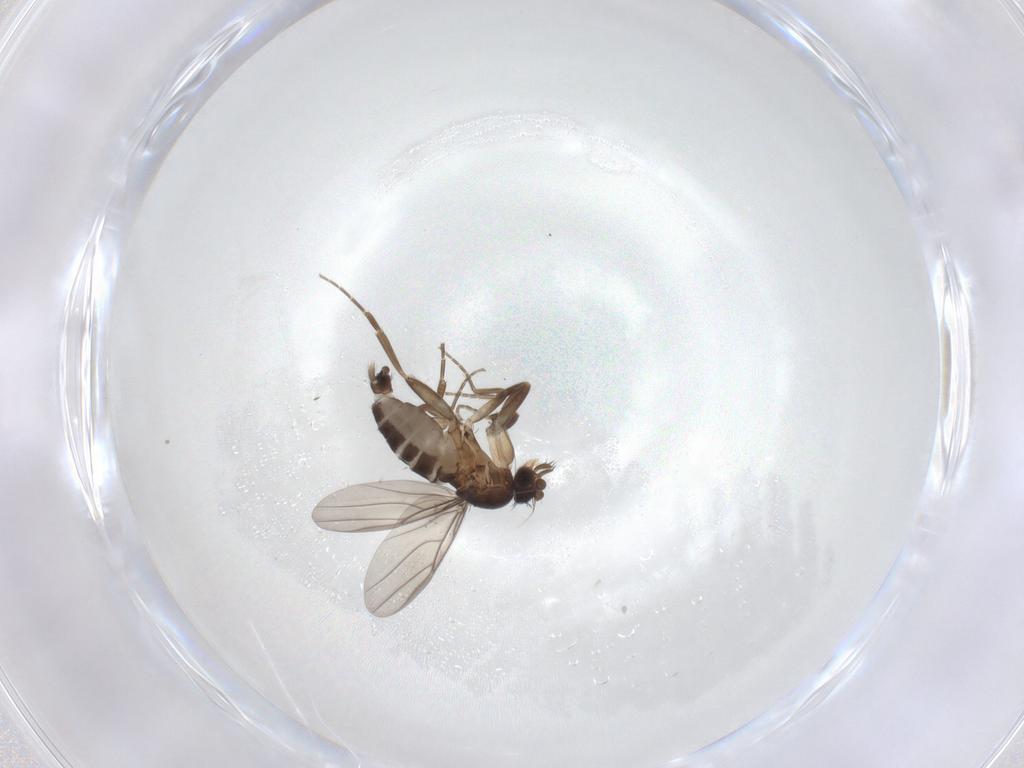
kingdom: Animalia
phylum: Arthropoda
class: Insecta
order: Diptera
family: Phoridae
